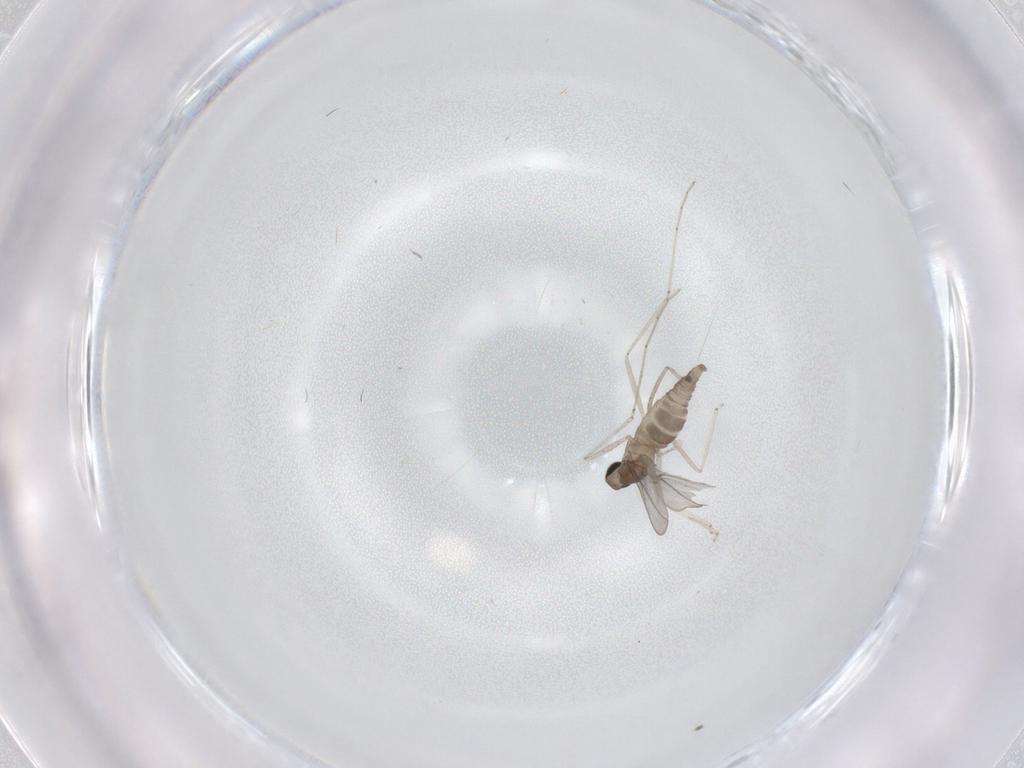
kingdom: Animalia
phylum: Arthropoda
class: Insecta
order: Diptera
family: Cecidomyiidae
